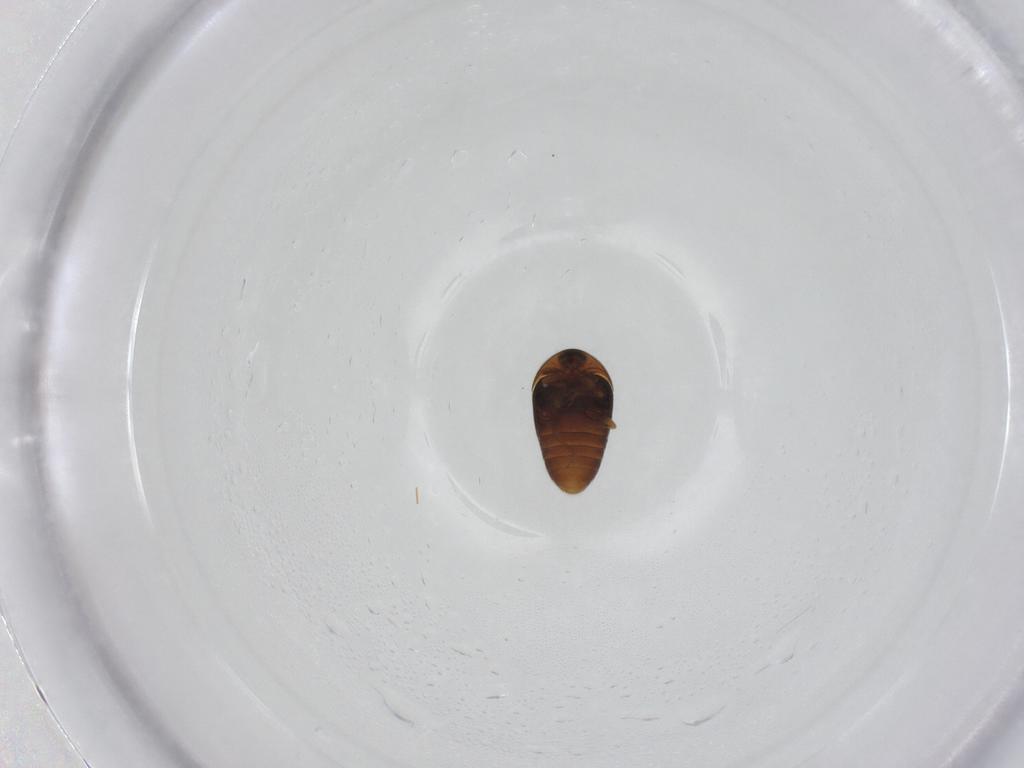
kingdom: Animalia
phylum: Arthropoda
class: Insecta
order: Coleoptera
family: Corylophidae
